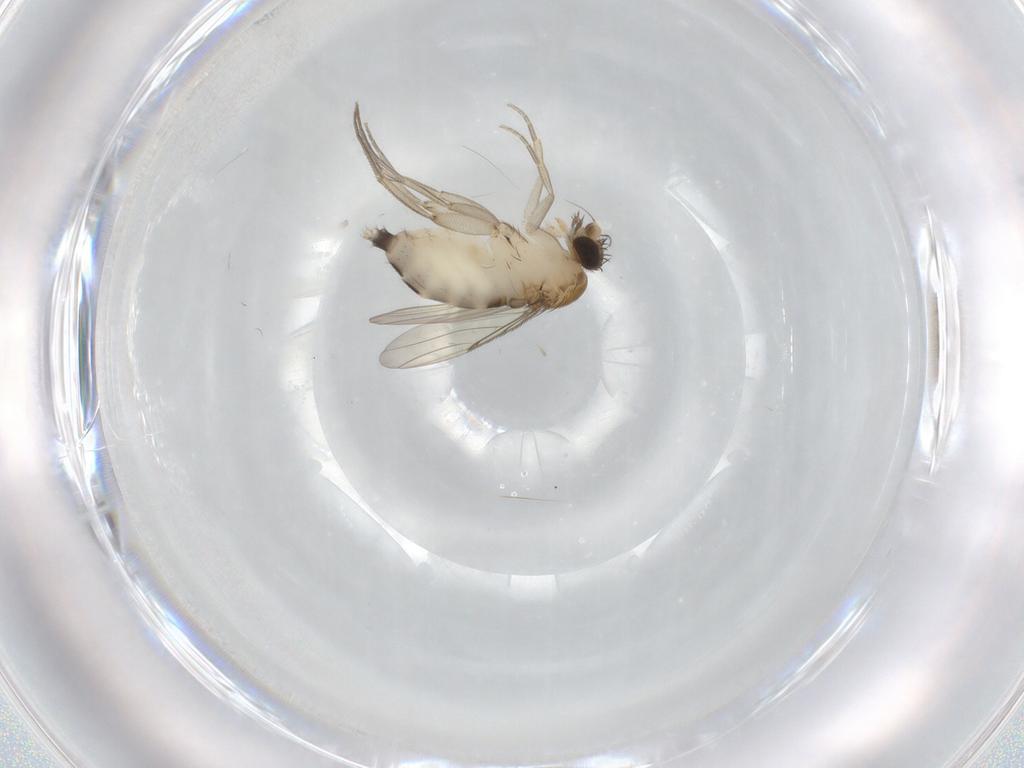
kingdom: Animalia
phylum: Arthropoda
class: Insecta
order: Diptera
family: Phoridae
